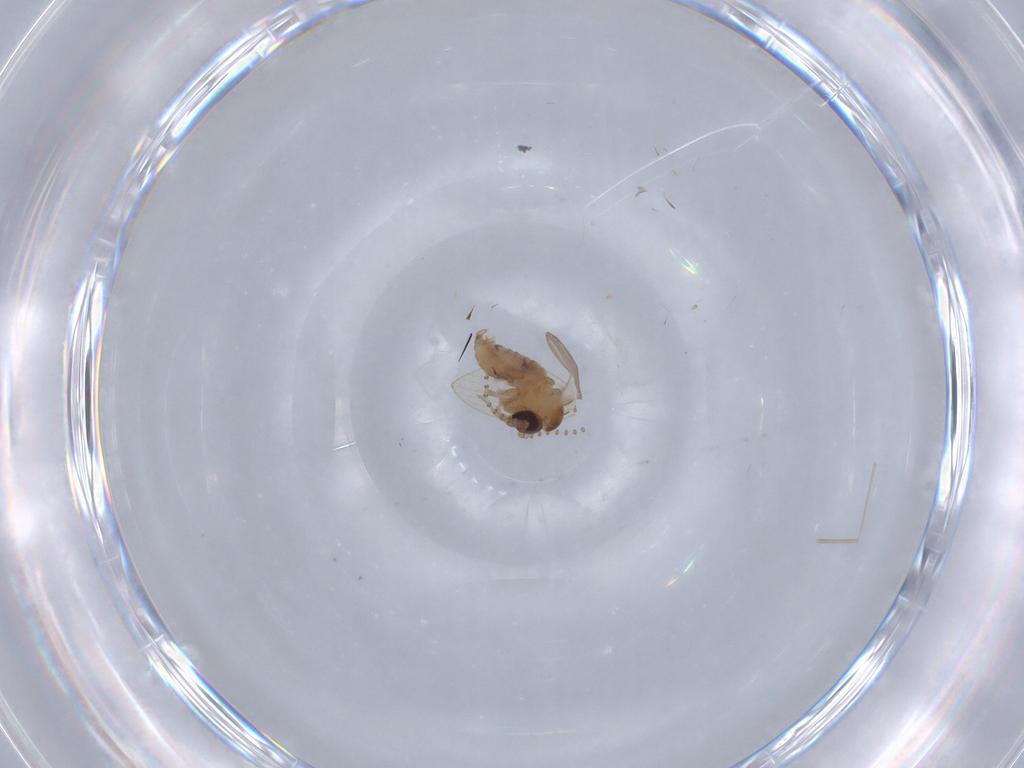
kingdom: Animalia
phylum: Arthropoda
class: Insecta
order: Diptera
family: Psychodidae
